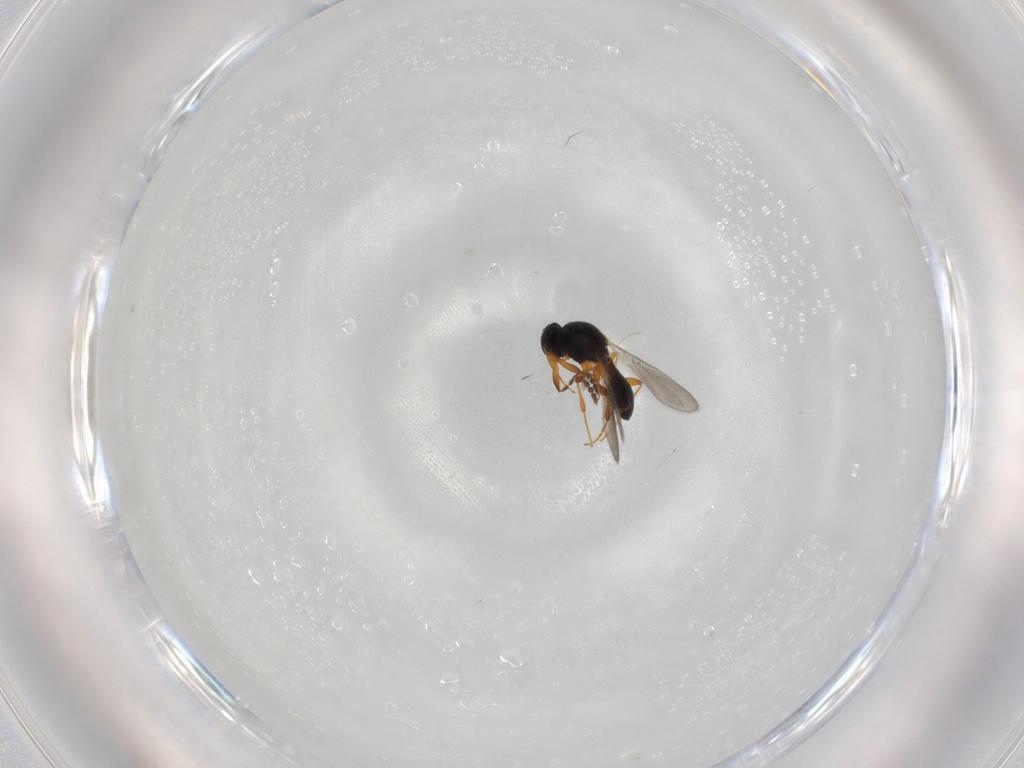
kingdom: Animalia
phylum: Arthropoda
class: Insecta
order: Hymenoptera
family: Platygastridae
